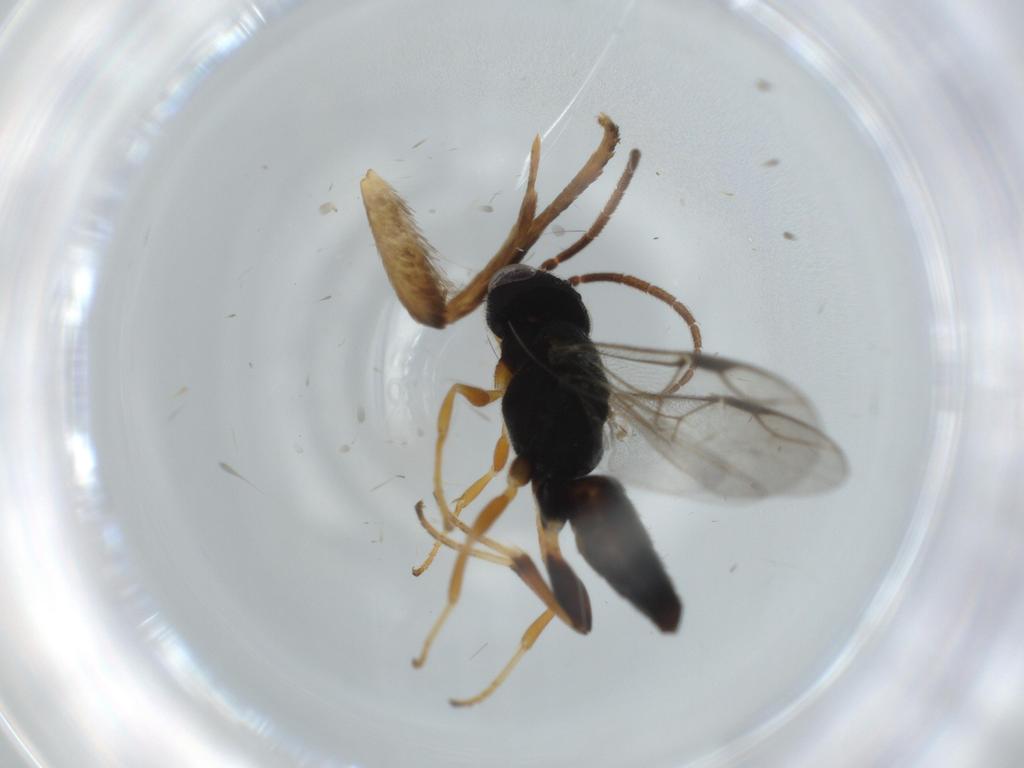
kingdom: Animalia
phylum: Arthropoda
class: Insecta
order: Hymenoptera
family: Dryinidae
